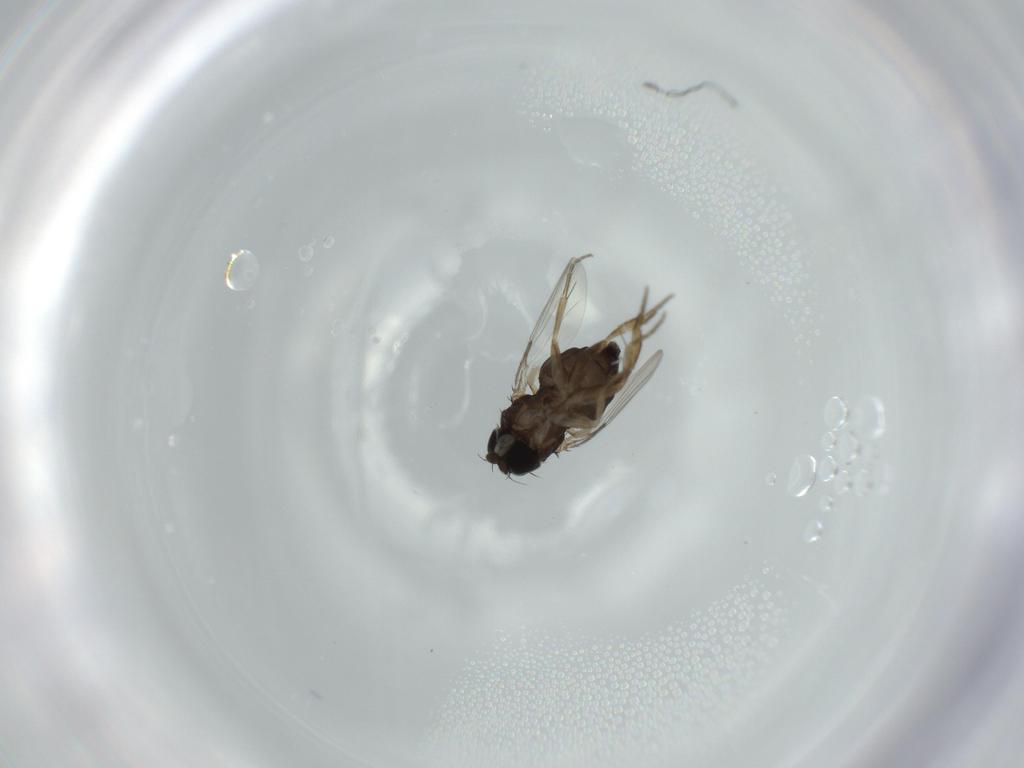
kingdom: Animalia
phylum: Arthropoda
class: Insecta
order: Diptera
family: Phoridae
